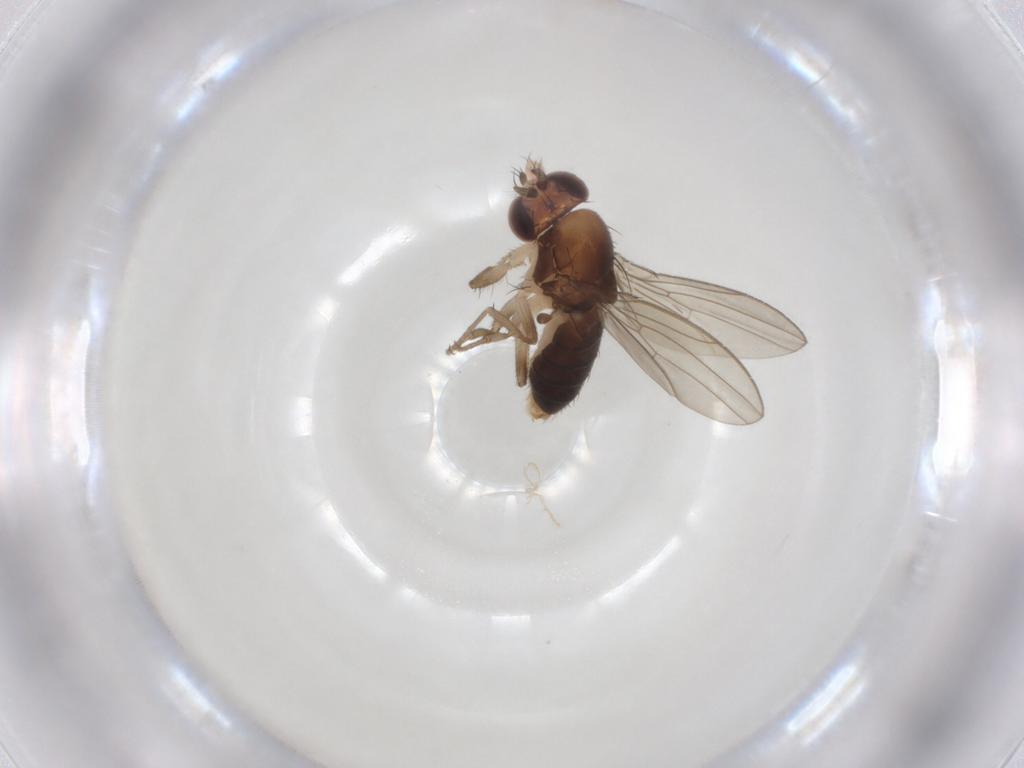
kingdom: Animalia
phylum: Arthropoda
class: Insecta
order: Diptera
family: Drosophilidae
